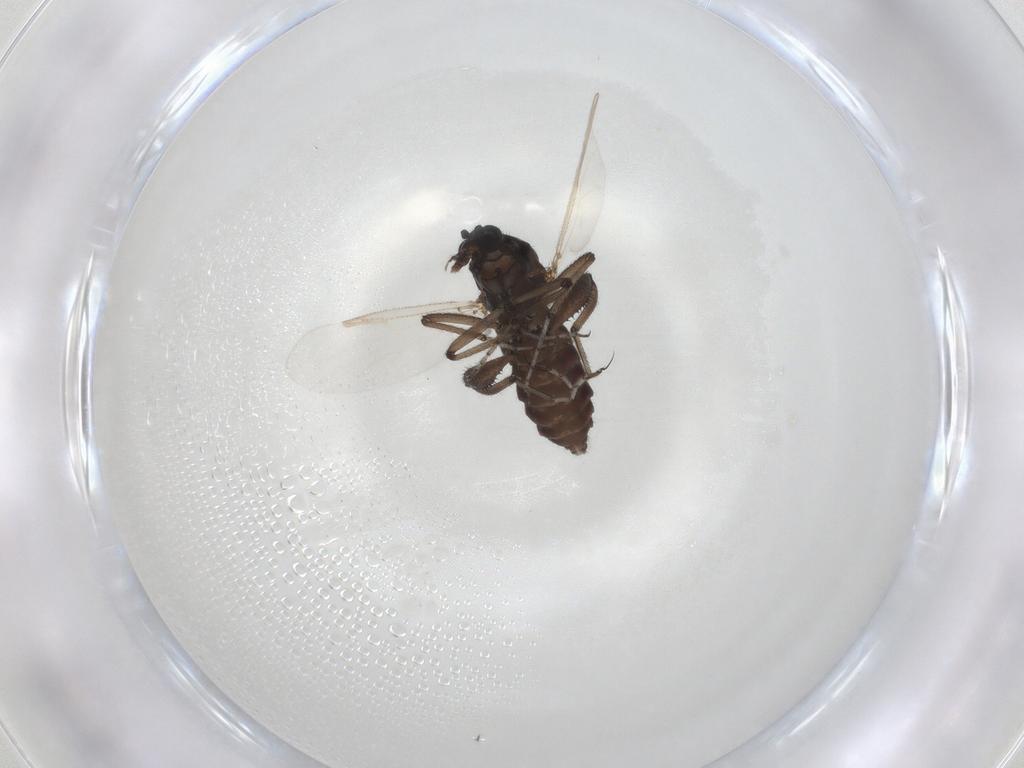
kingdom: Animalia
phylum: Arthropoda
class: Insecta
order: Diptera
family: Ceratopogonidae
